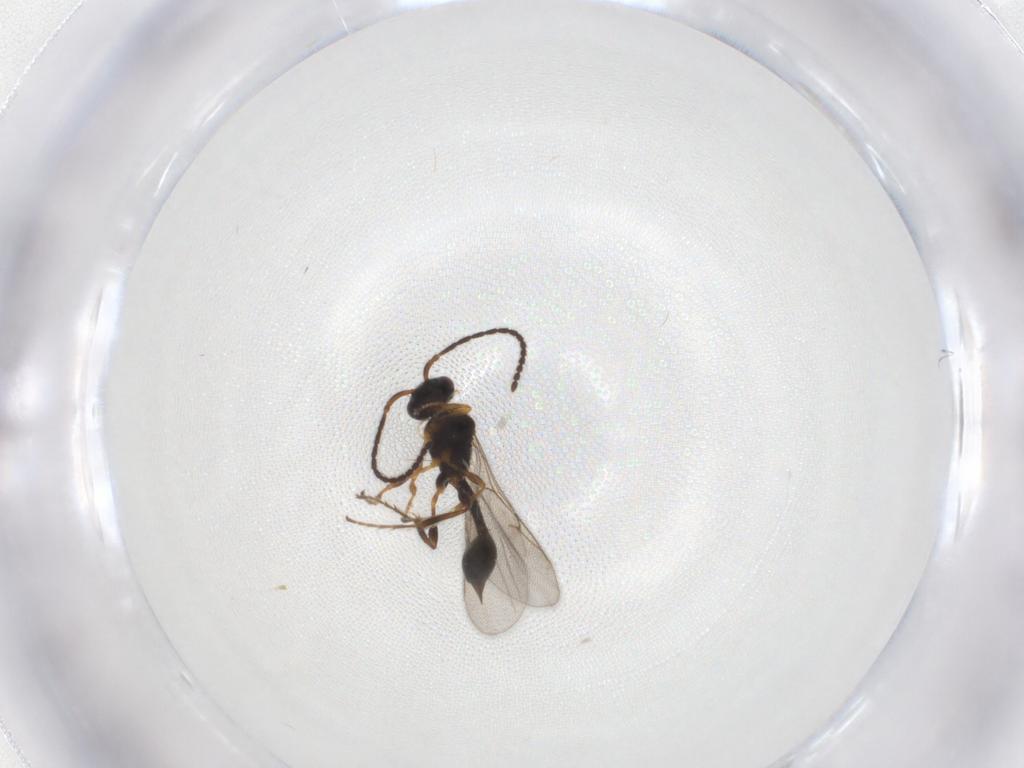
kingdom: Animalia
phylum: Arthropoda
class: Insecta
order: Hymenoptera
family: Diapriidae
